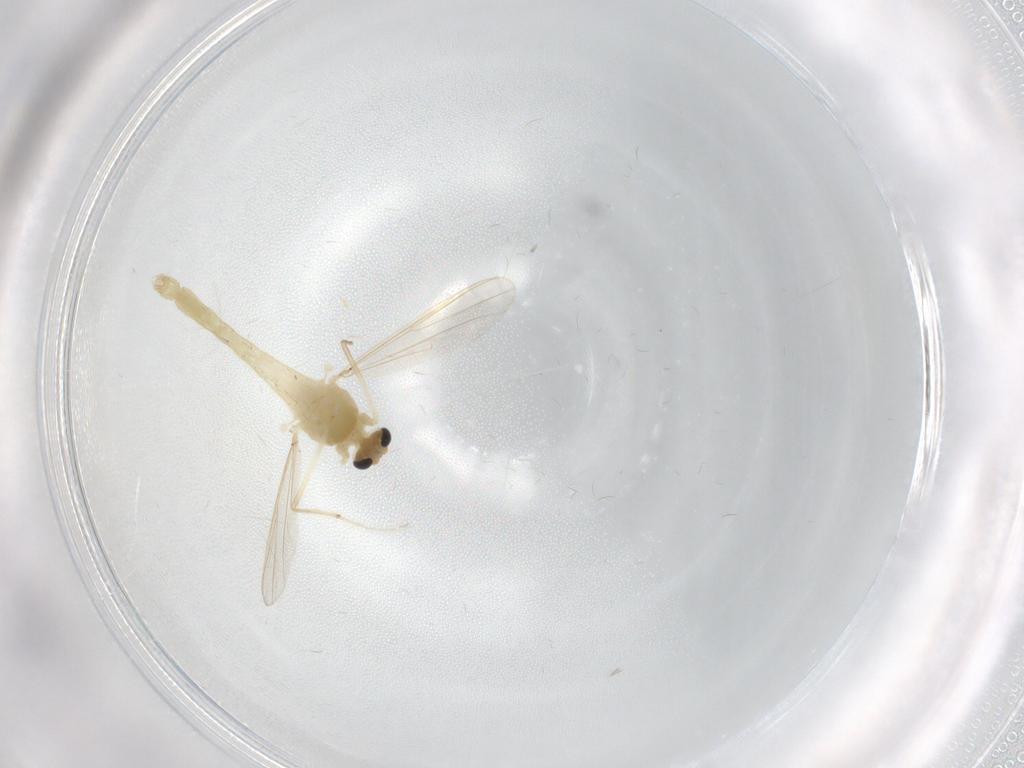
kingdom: Animalia
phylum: Arthropoda
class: Insecta
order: Diptera
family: Chironomidae
